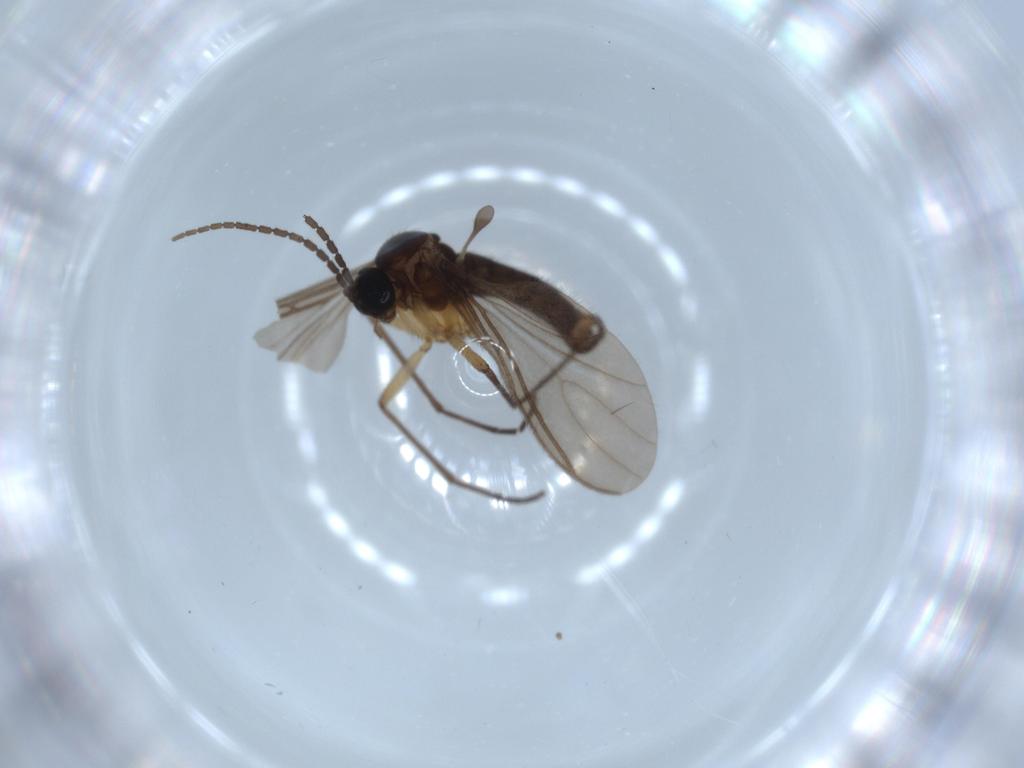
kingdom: Animalia
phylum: Arthropoda
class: Insecta
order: Diptera
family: Sciaridae
